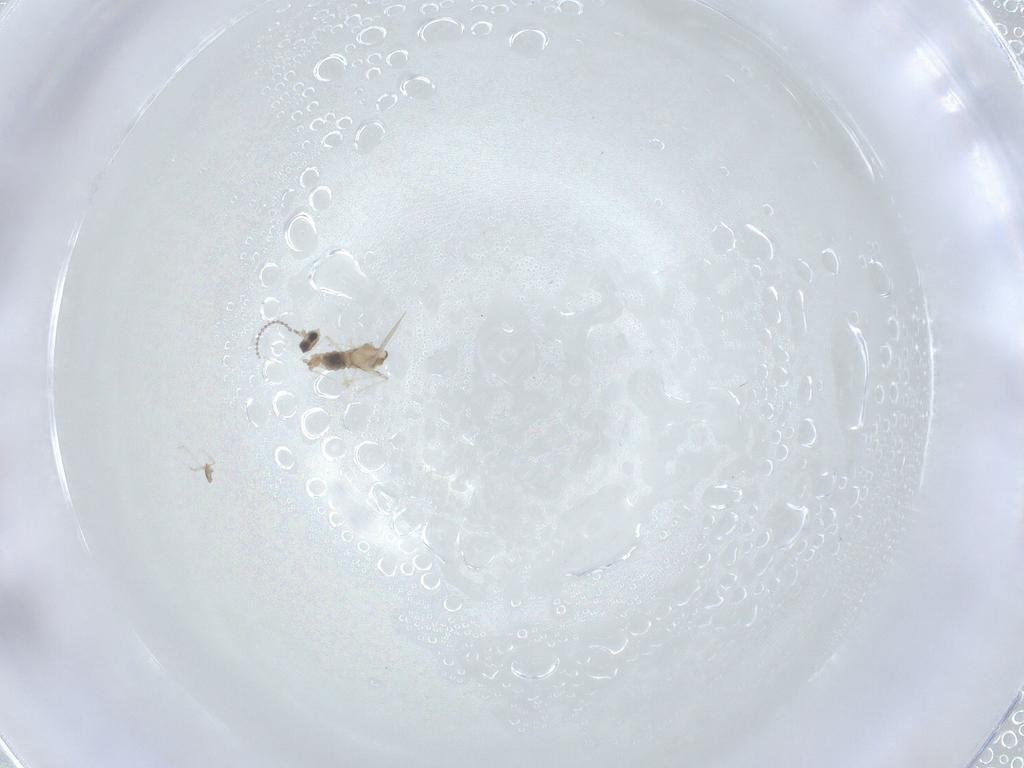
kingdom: Animalia
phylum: Arthropoda
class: Insecta
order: Diptera
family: Cecidomyiidae
